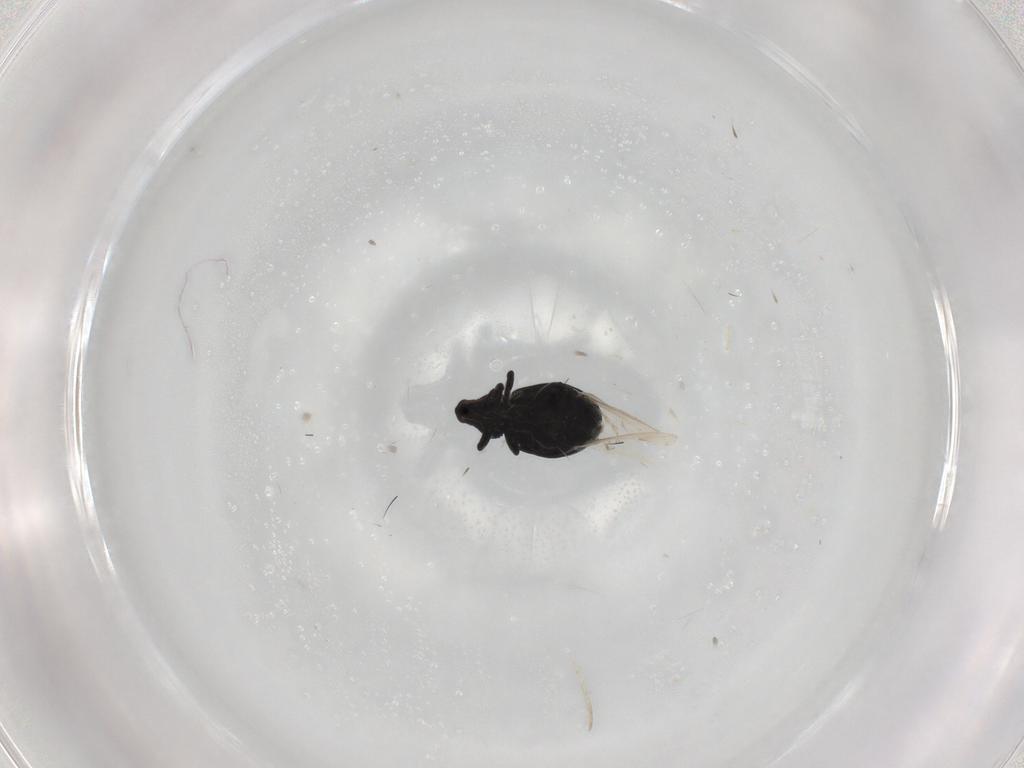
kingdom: Animalia
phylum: Arthropoda
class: Insecta
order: Coleoptera
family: Curculionidae
